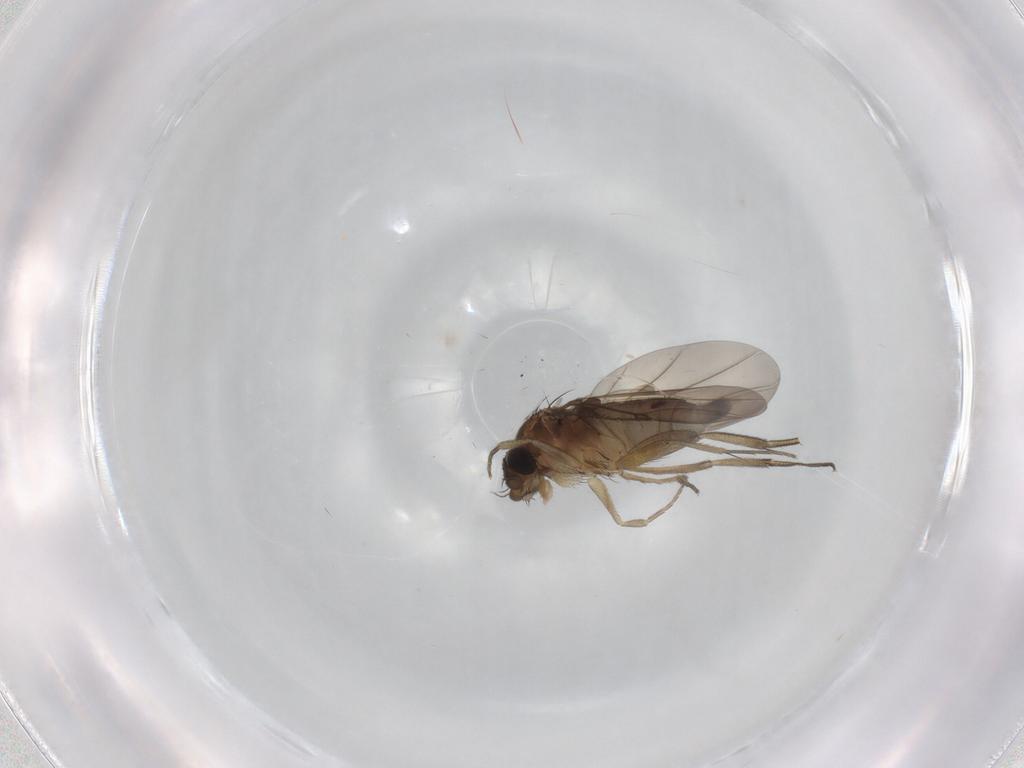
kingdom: Animalia
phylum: Arthropoda
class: Insecta
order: Diptera
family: Phoridae
